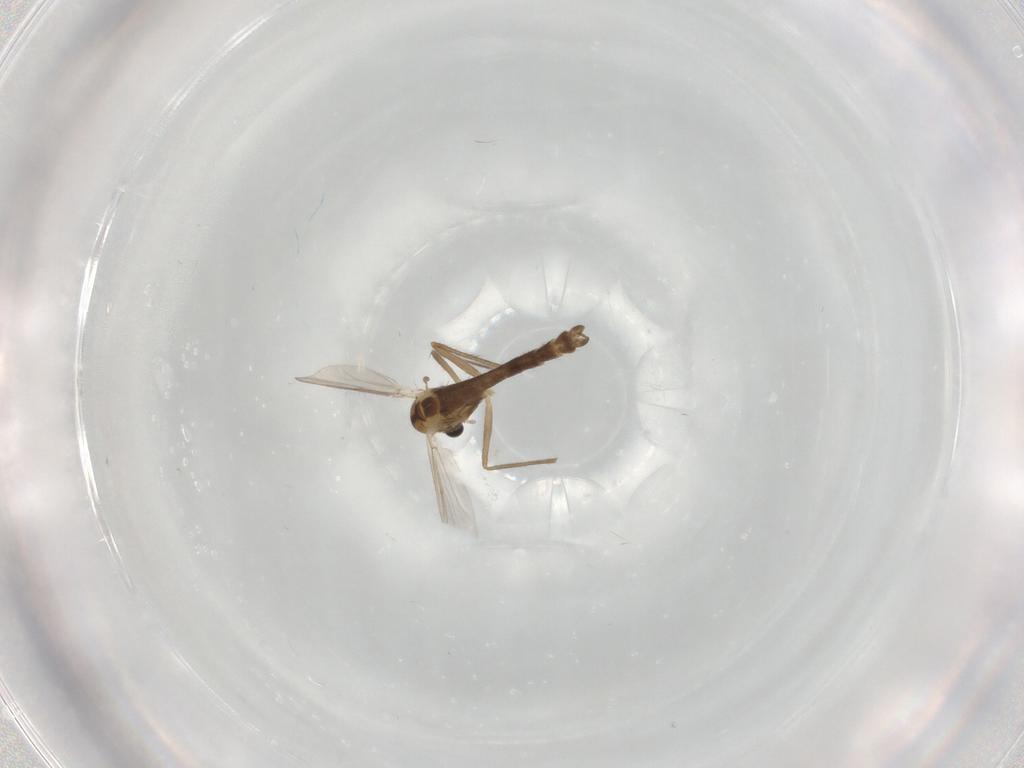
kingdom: Animalia
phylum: Arthropoda
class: Insecta
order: Diptera
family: Chironomidae
